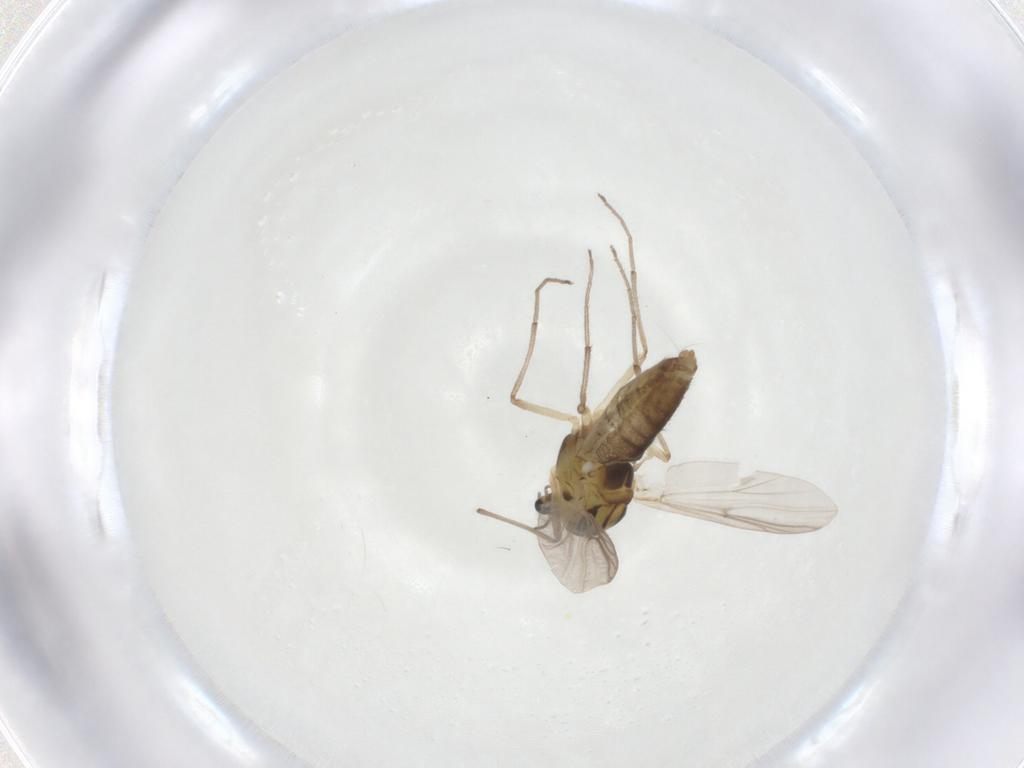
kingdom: Animalia
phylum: Arthropoda
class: Insecta
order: Diptera
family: Chironomidae
